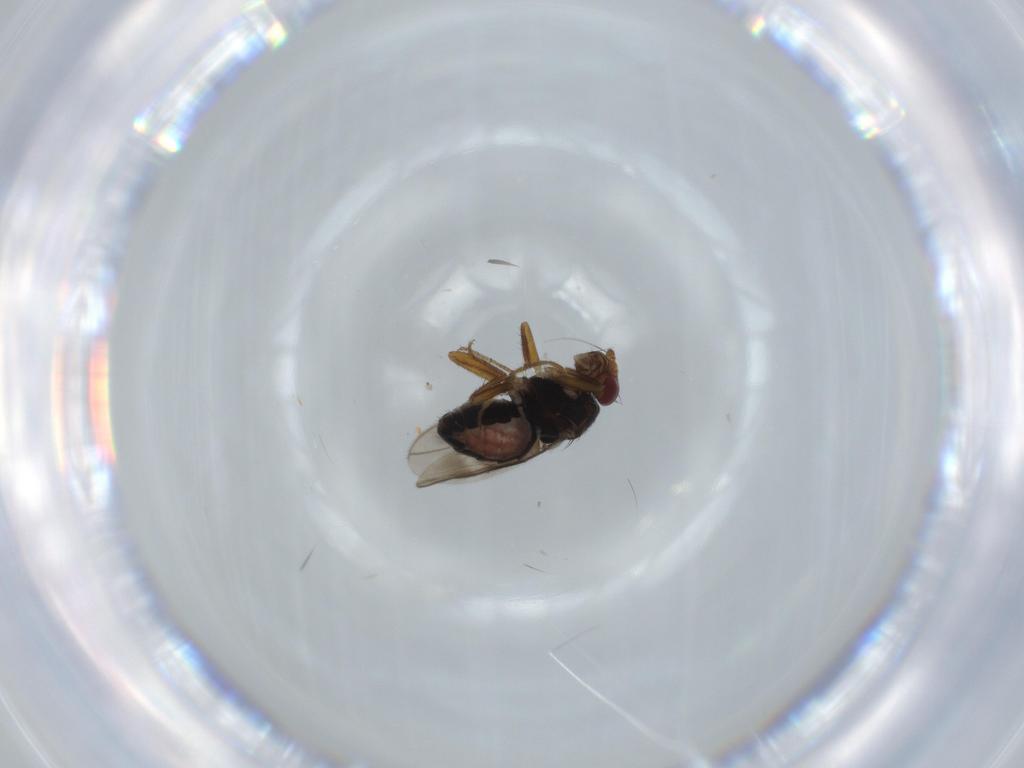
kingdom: Animalia
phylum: Arthropoda
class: Insecta
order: Diptera
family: Sphaeroceridae
